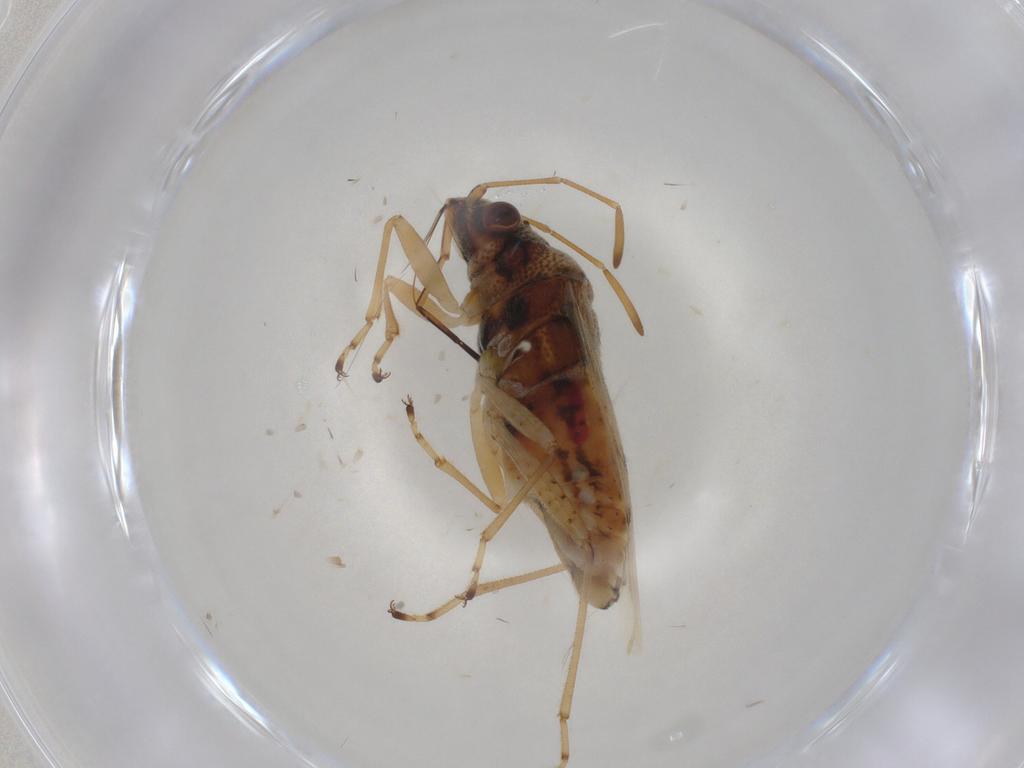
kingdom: Animalia
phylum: Arthropoda
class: Insecta
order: Hemiptera
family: Lygaeidae
